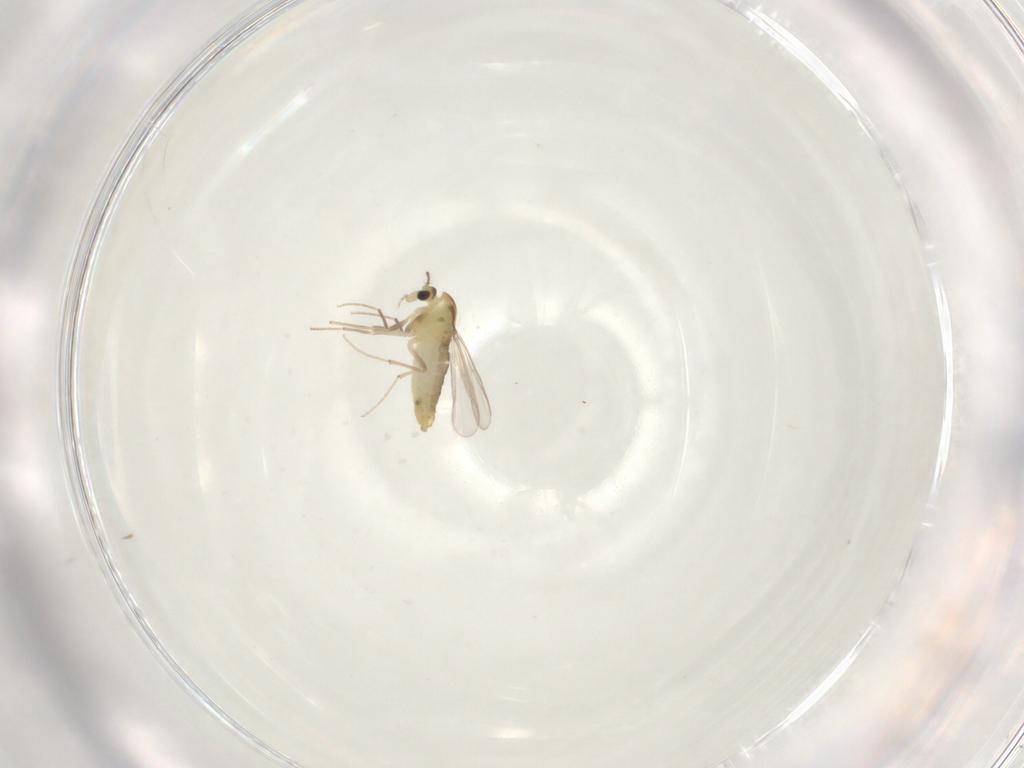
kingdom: Animalia
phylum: Arthropoda
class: Insecta
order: Diptera
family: Chironomidae
